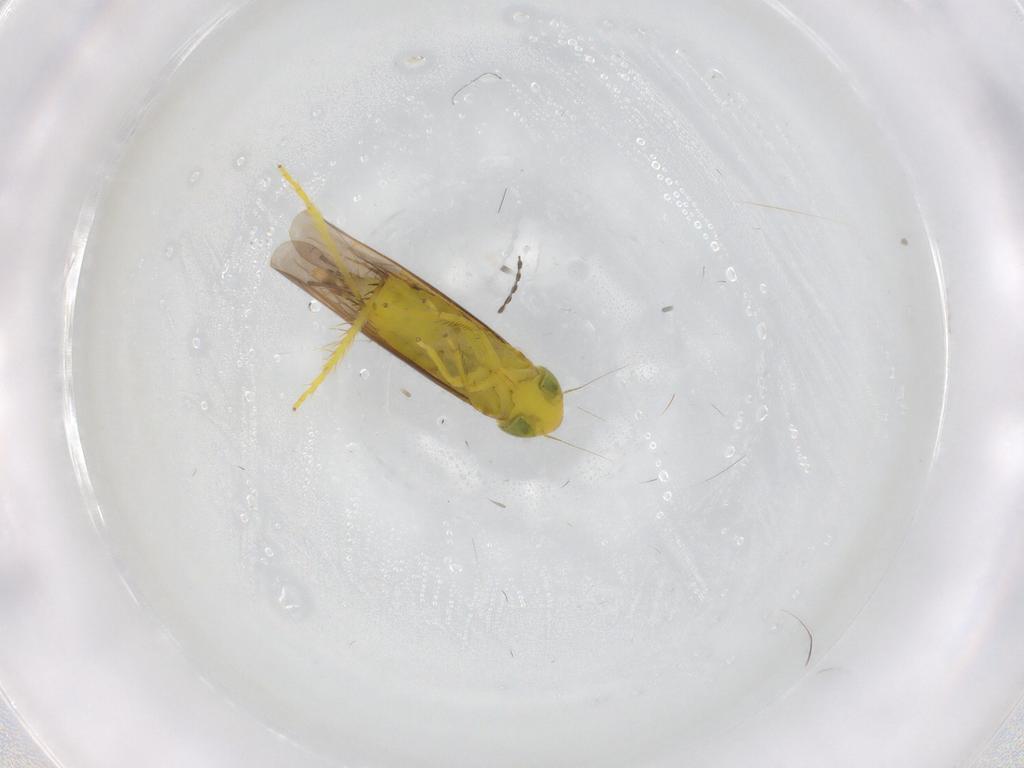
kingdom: Animalia
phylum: Arthropoda
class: Insecta
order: Hemiptera
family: Cicadellidae
